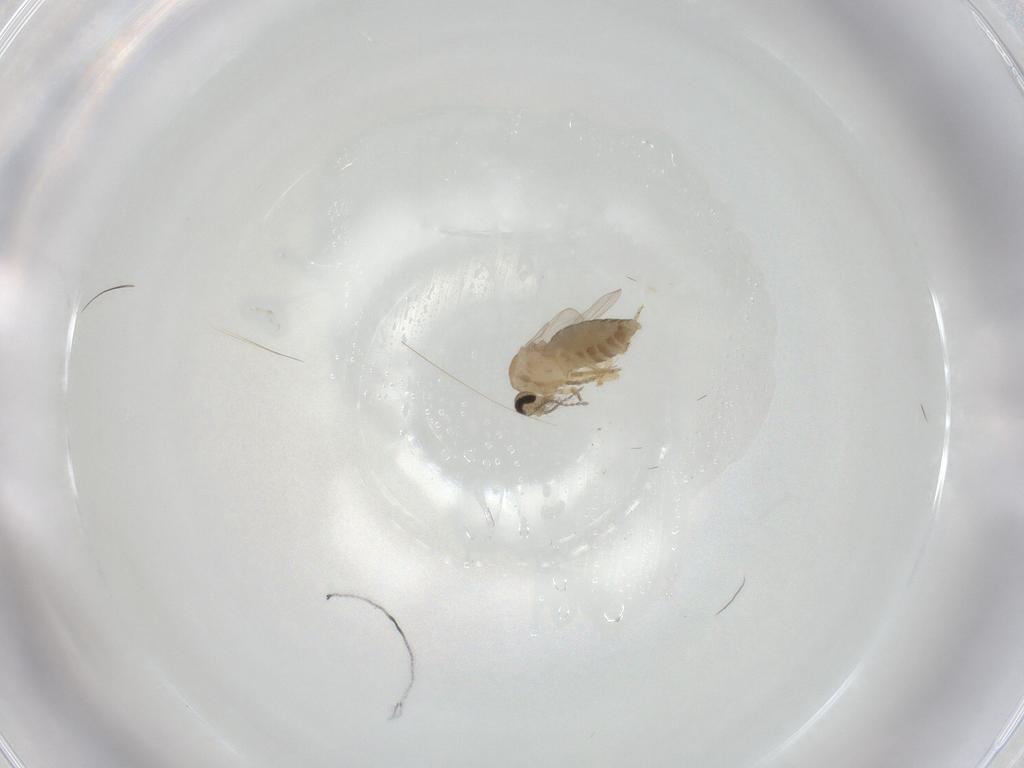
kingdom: Animalia
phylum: Arthropoda
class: Insecta
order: Diptera
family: Ceratopogonidae
